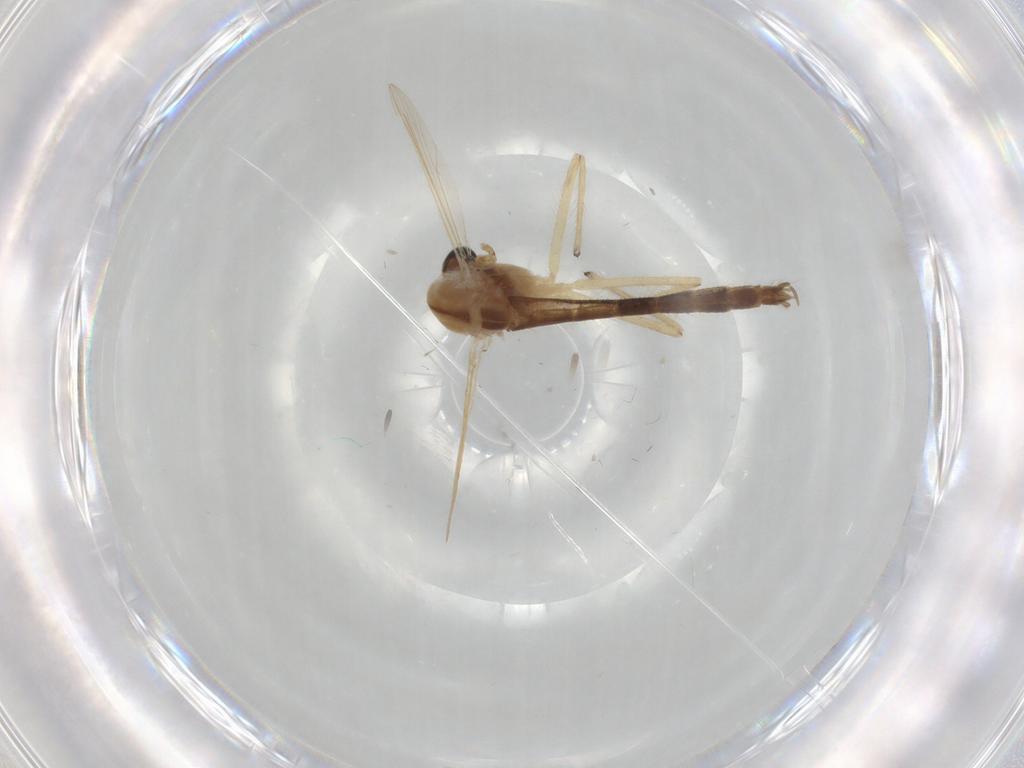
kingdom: Animalia
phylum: Arthropoda
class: Insecta
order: Diptera
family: Chironomidae
